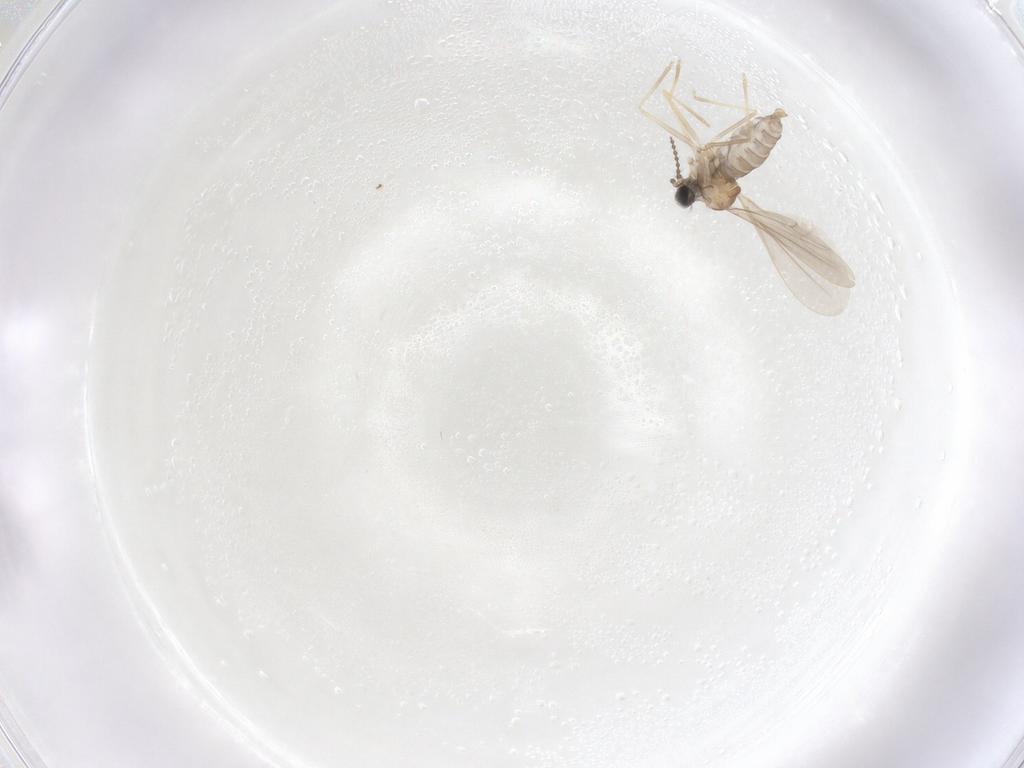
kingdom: Animalia
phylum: Arthropoda
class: Insecta
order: Diptera
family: Cecidomyiidae
